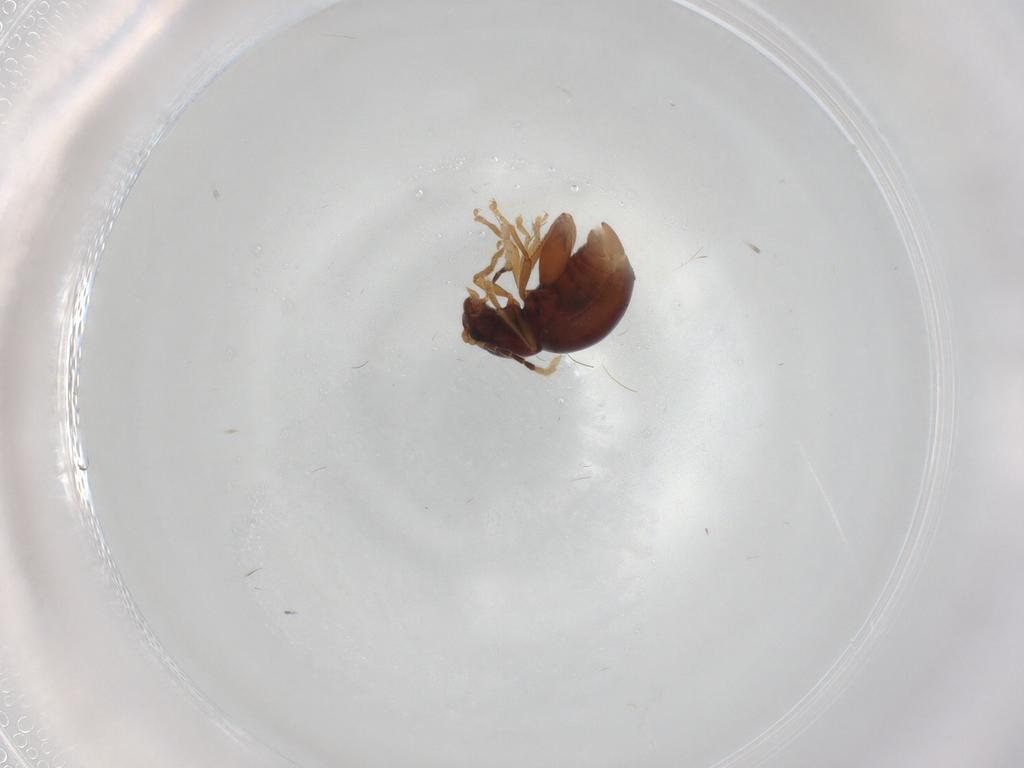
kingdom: Animalia
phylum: Arthropoda
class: Insecta
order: Coleoptera
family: Chrysomelidae
